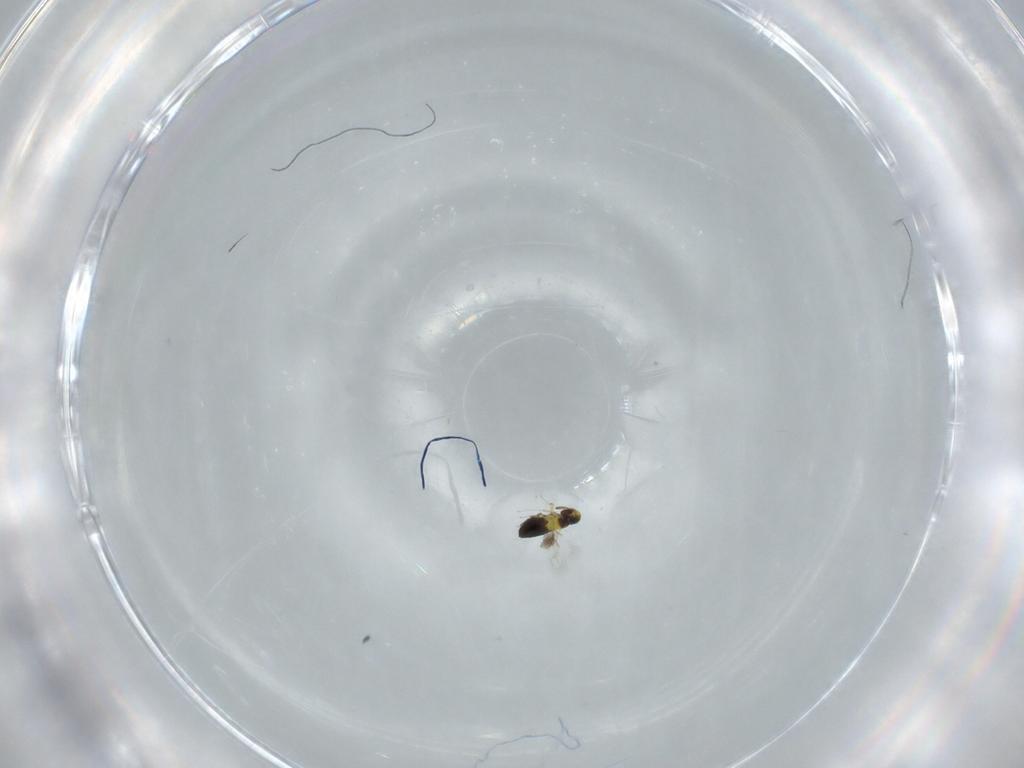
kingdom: Animalia
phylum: Arthropoda
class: Insecta
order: Hymenoptera
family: Signiphoridae
